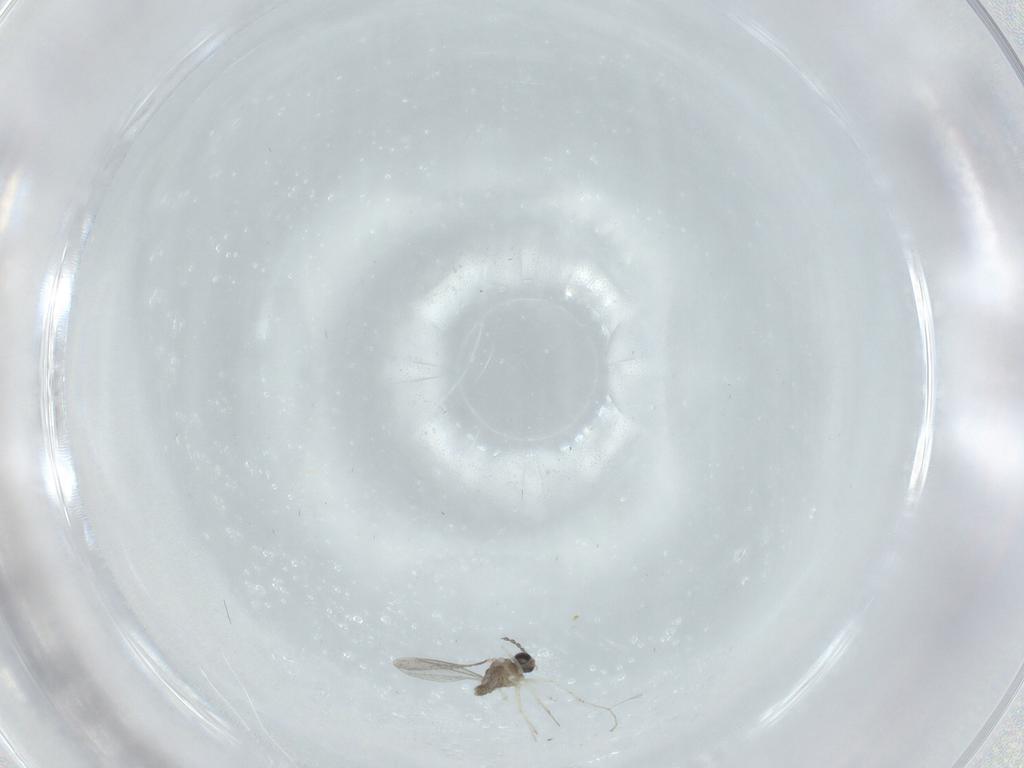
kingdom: Animalia
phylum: Arthropoda
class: Insecta
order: Diptera
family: Cecidomyiidae
